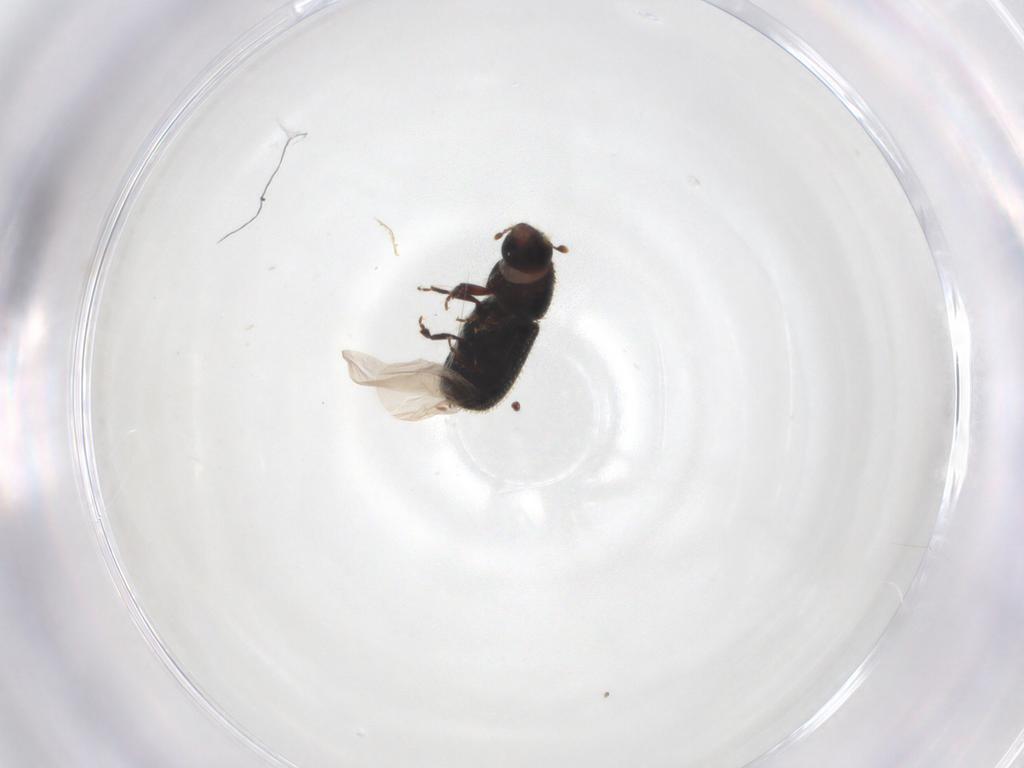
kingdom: Animalia
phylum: Arthropoda
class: Insecta
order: Coleoptera
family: Curculionidae
